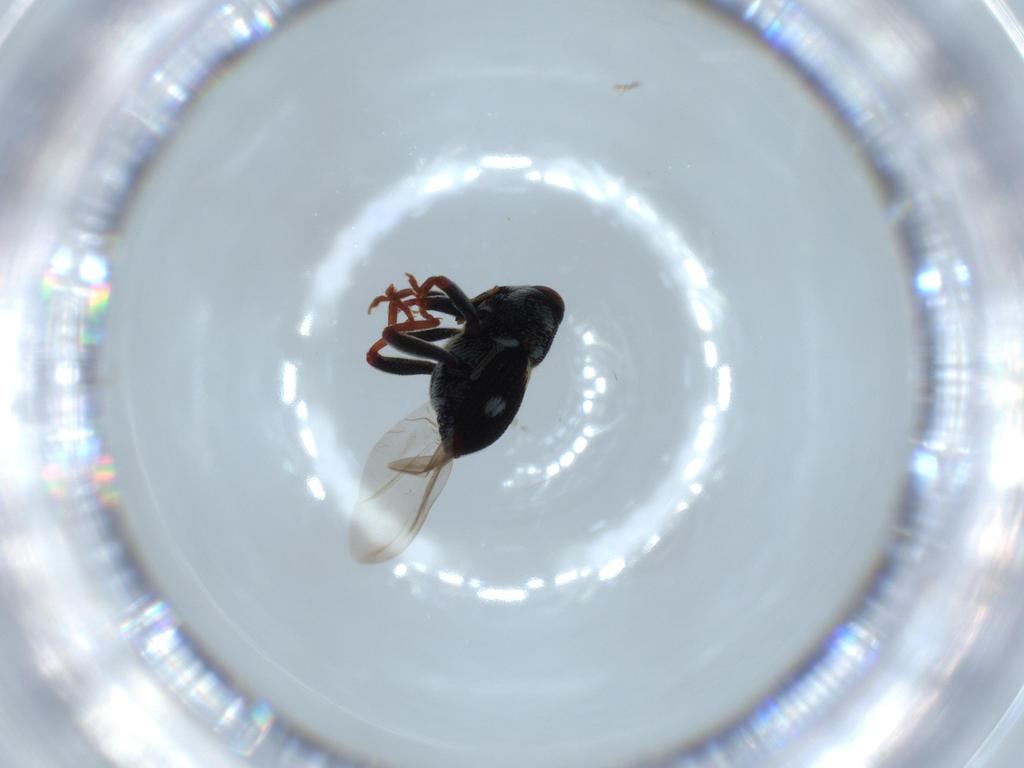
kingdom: Animalia
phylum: Arthropoda
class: Insecta
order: Coleoptera
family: Curculionidae
